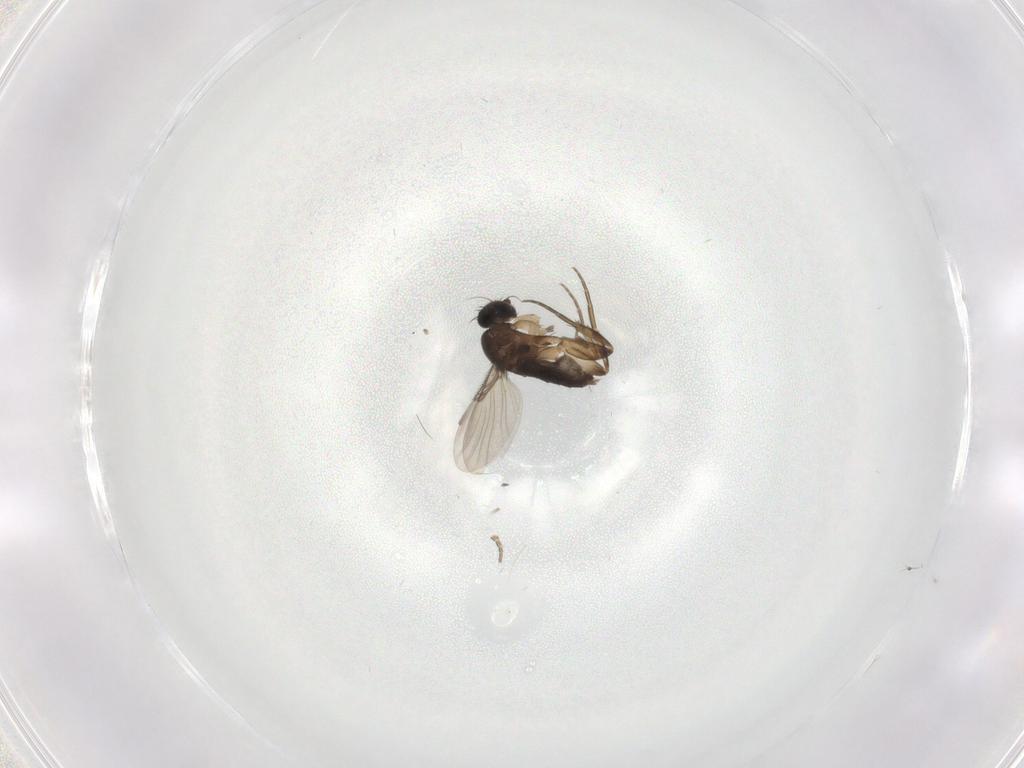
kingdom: Animalia
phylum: Arthropoda
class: Insecta
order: Diptera
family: Phoridae
